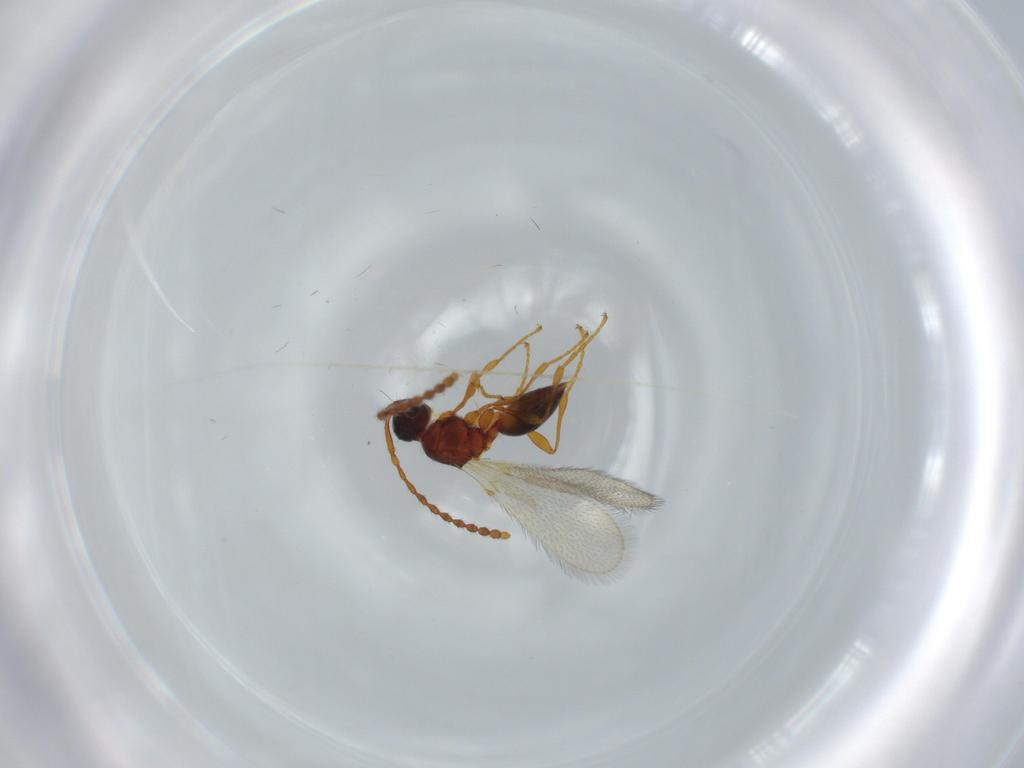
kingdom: Animalia
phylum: Arthropoda
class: Insecta
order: Hymenoptera
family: Diapriidae
